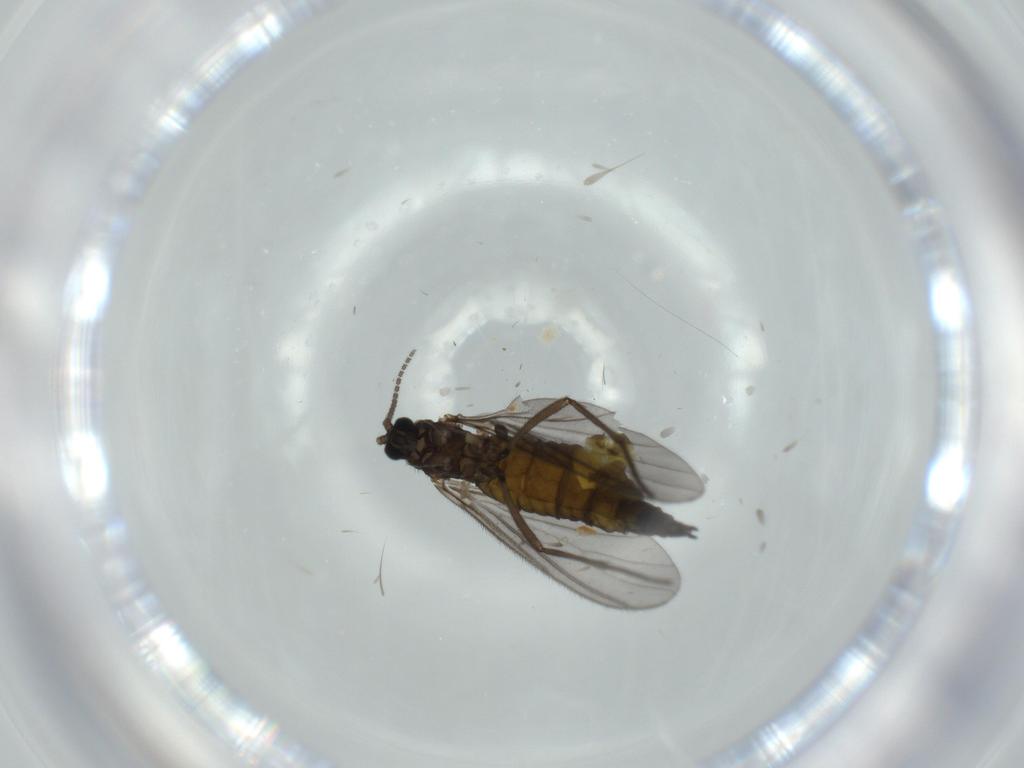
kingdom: Animalia
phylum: Arthropoda
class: Insecta
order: Diptera
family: Sciaridae
